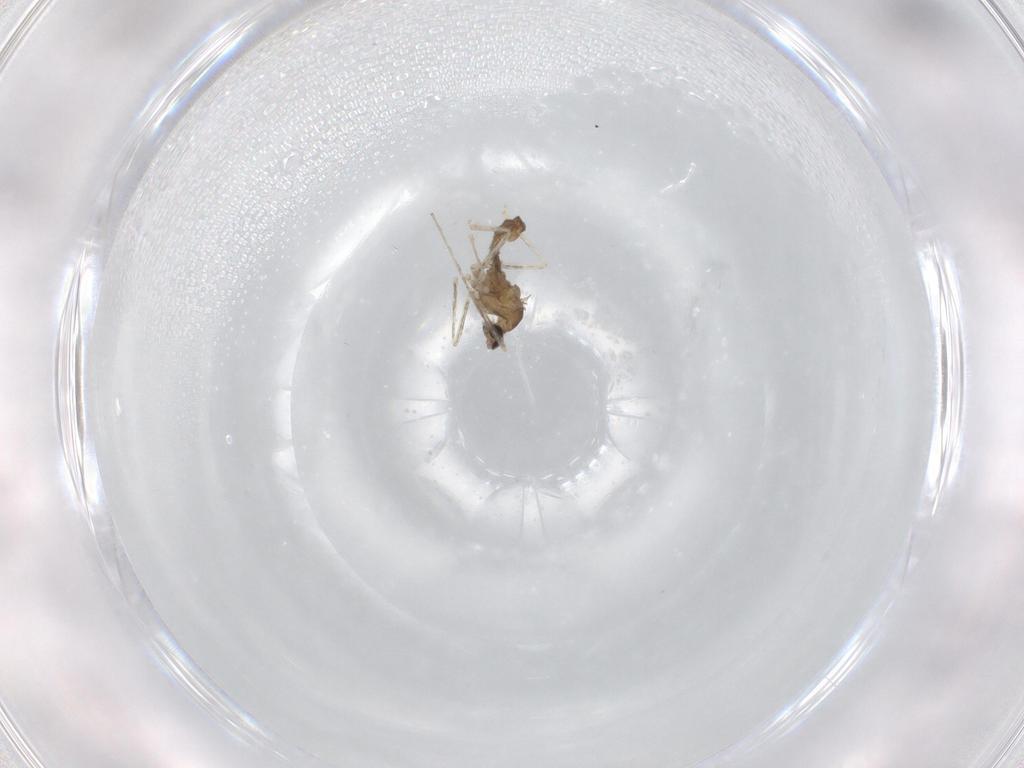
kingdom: Animalia
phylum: Arthropoda
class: Insecta
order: Diptera
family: Cecidomyiidae
